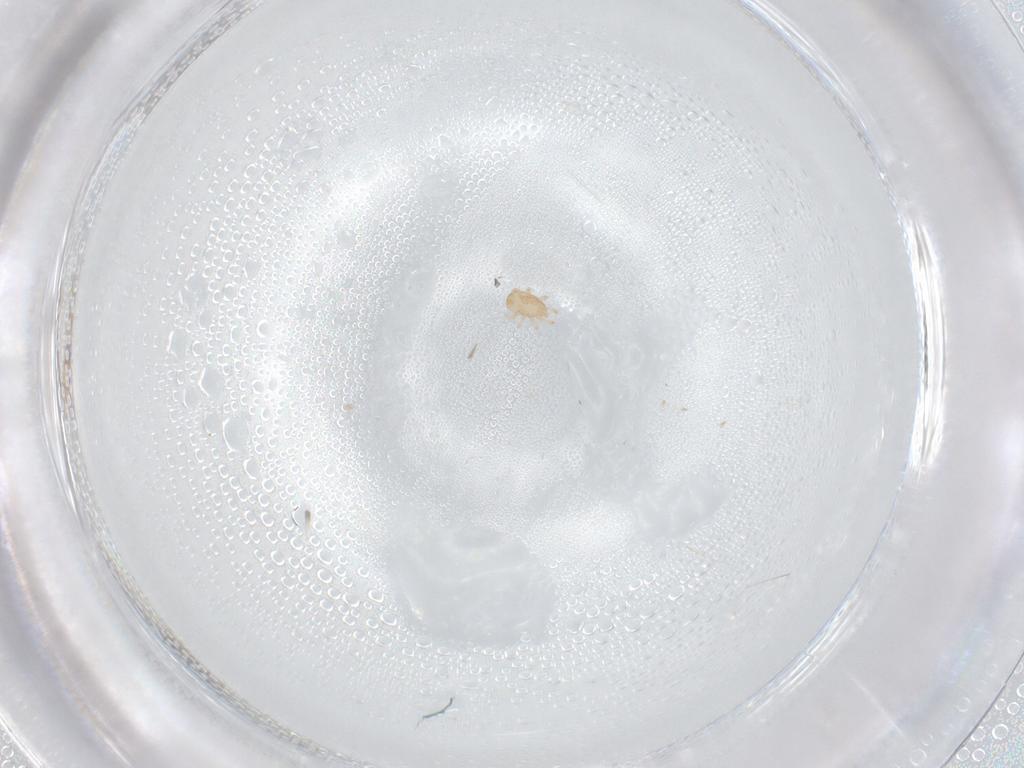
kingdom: Animalia
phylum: Arthropoda
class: Arachnida
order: Mesostigmata
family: Ascidae
